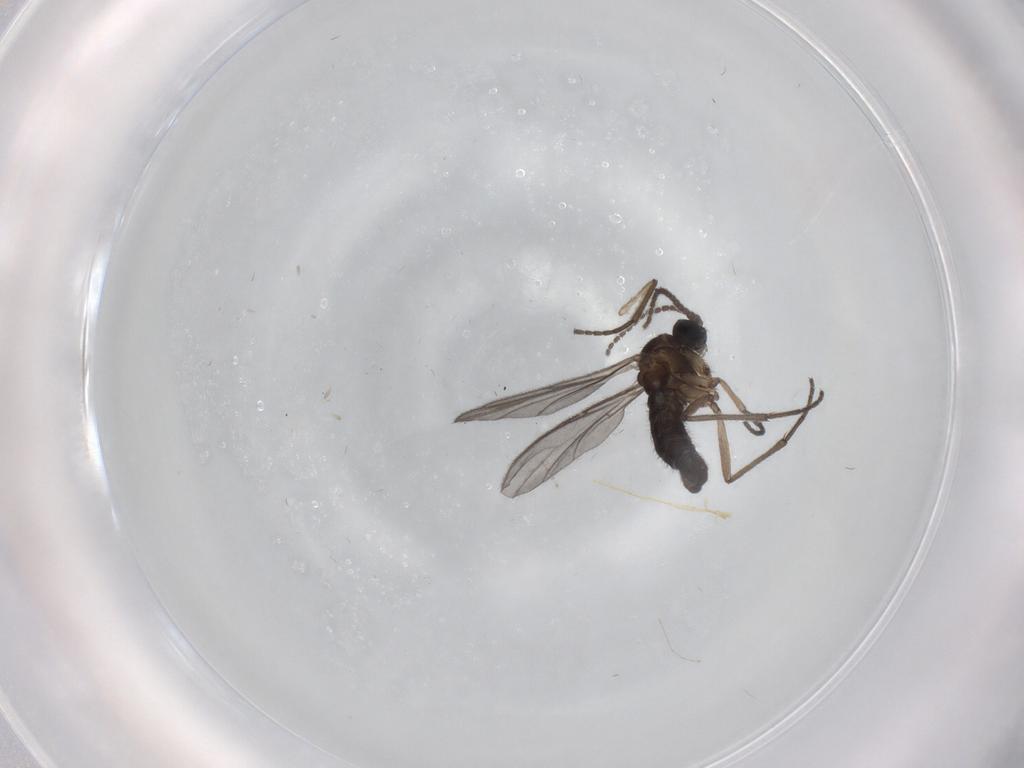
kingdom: Animalia
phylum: Arthropoda
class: Insecta
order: Diptera
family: Sciaridae
